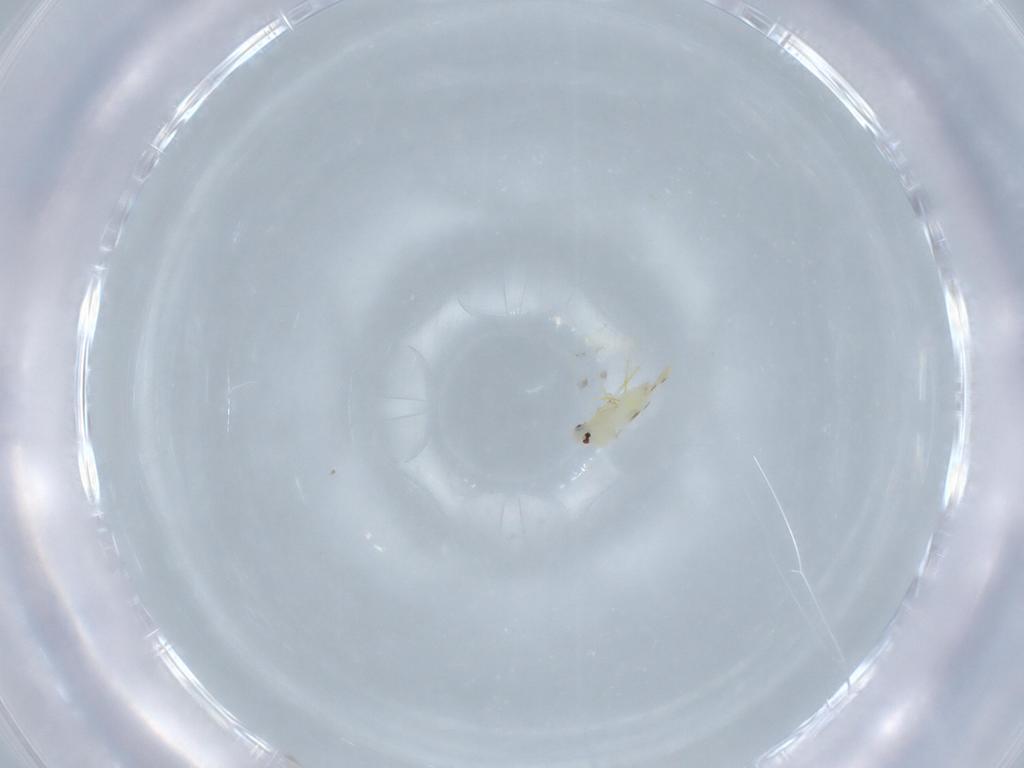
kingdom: Animalia
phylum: Arthropoda
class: Insecta
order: Hemiptera
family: Aleyrodidae
